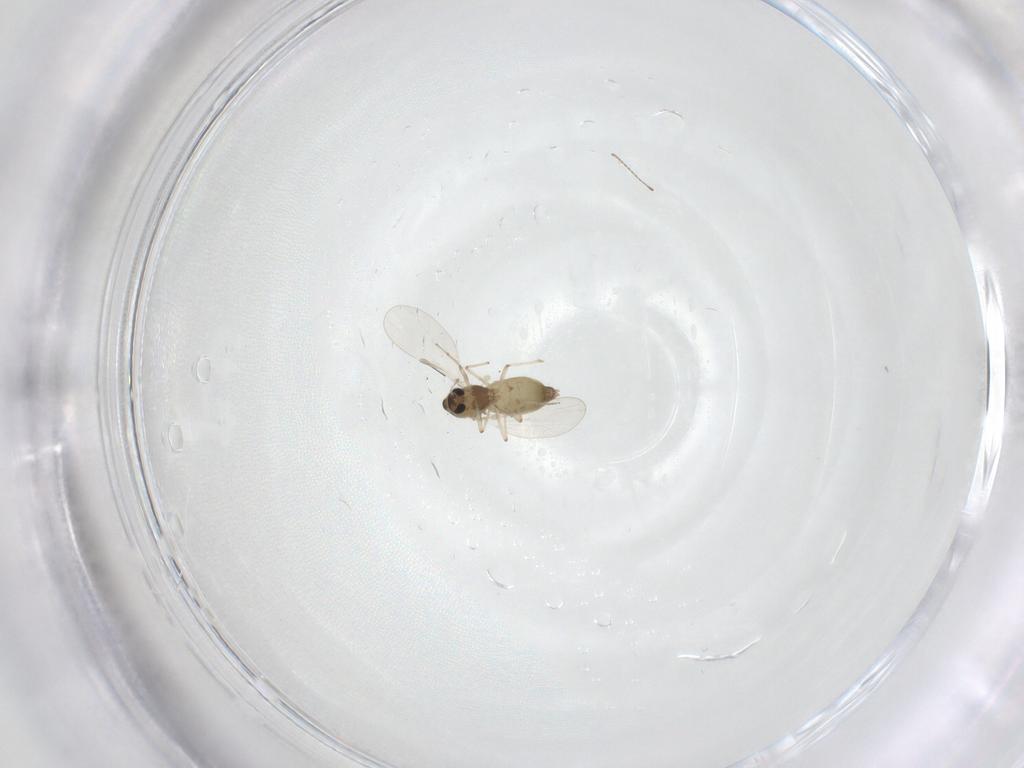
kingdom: Animalia
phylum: Arthropoda
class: Insecta
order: Diptera
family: Chironomidae
